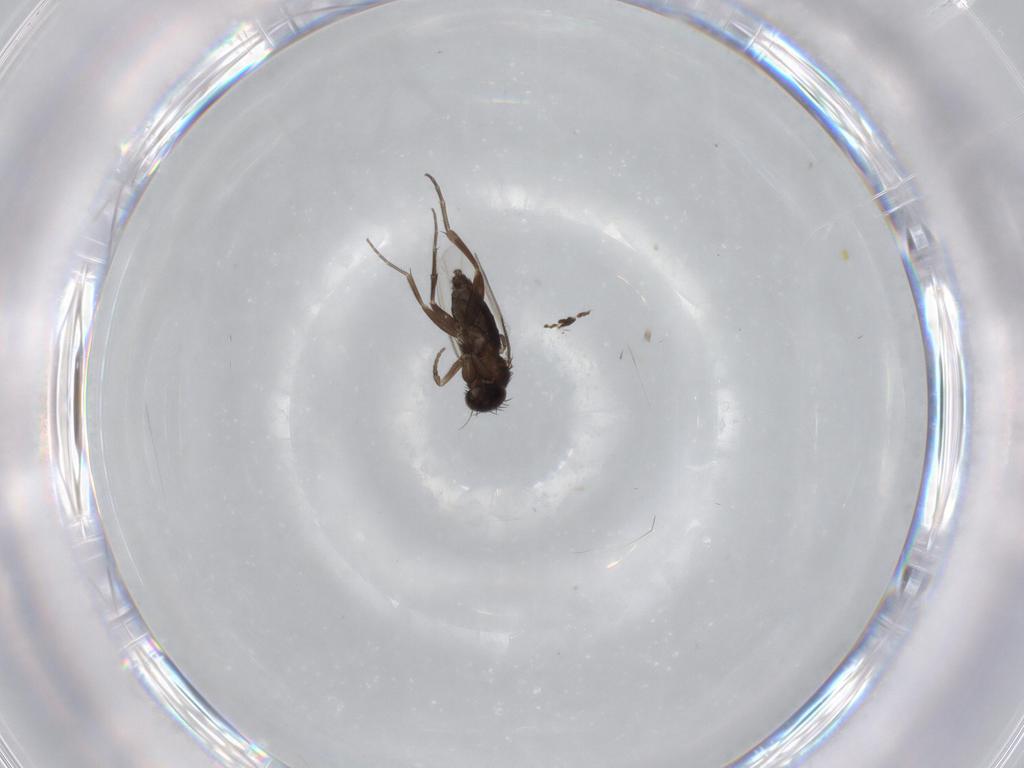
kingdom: Animalia
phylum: Arthropoda
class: Insecta
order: Diptera
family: Phoridae
